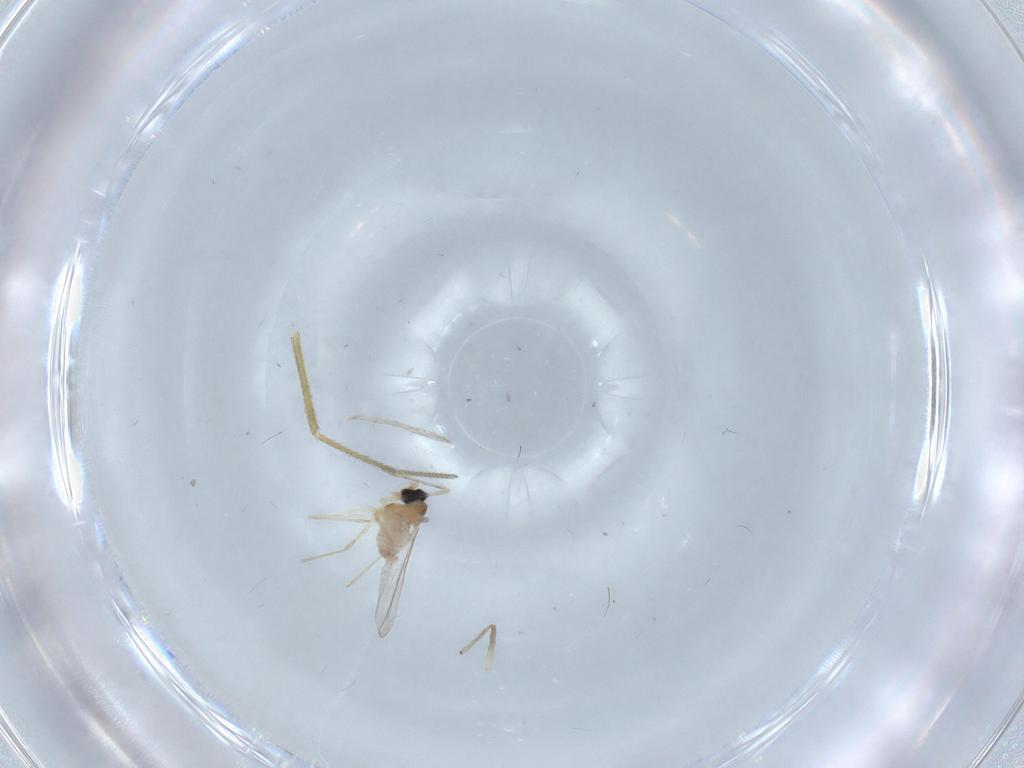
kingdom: Animalia
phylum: Arthropoda
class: Insecta
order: Diptera
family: Cecidomyiidae
